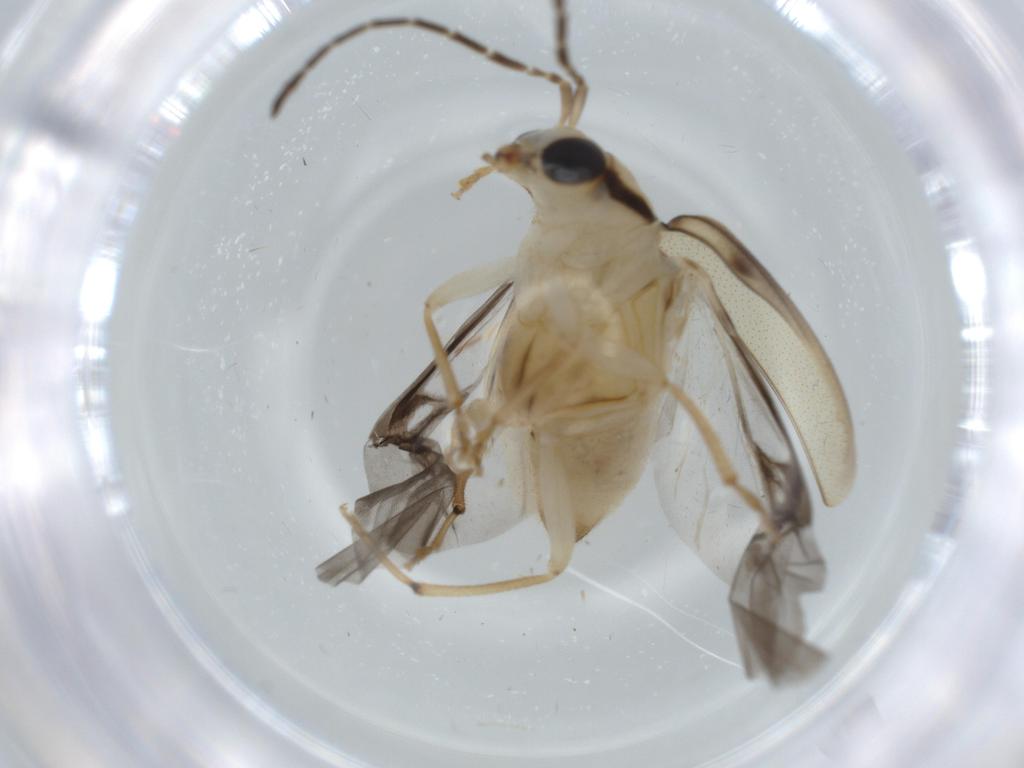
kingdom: Animalia
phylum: Arthropoda
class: Insecta
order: Coleoptera
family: Chrysomelidae
